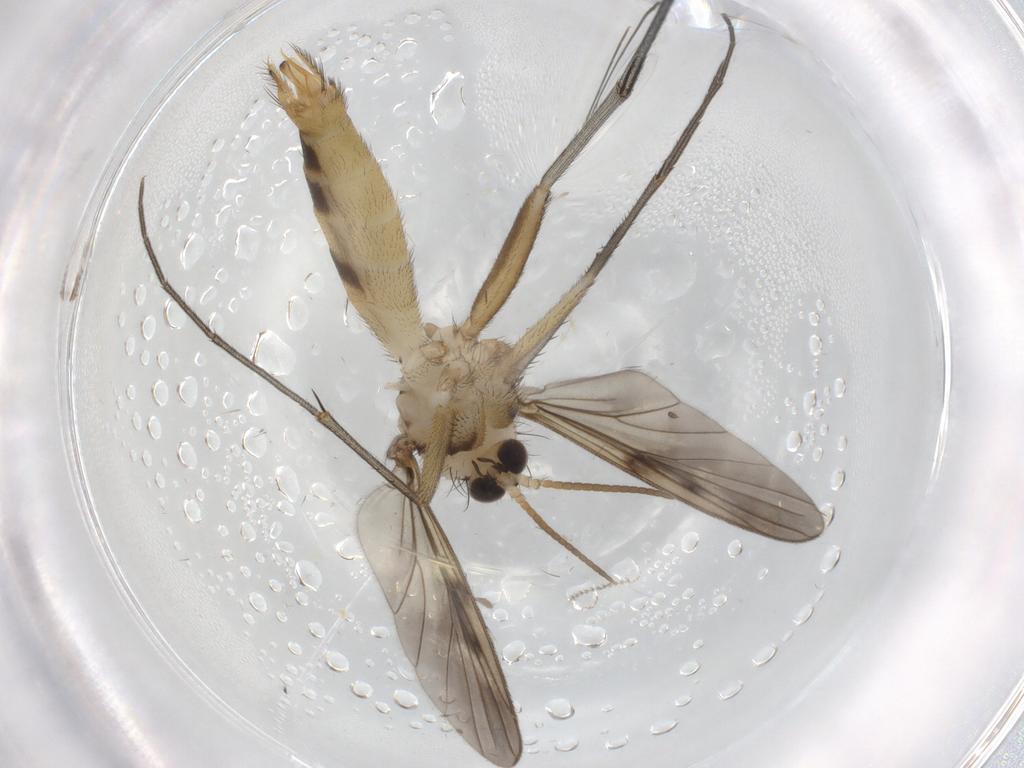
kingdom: Animalia
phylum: Arthropoda
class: Insecta
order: Diptera
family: Mycetophilidae
